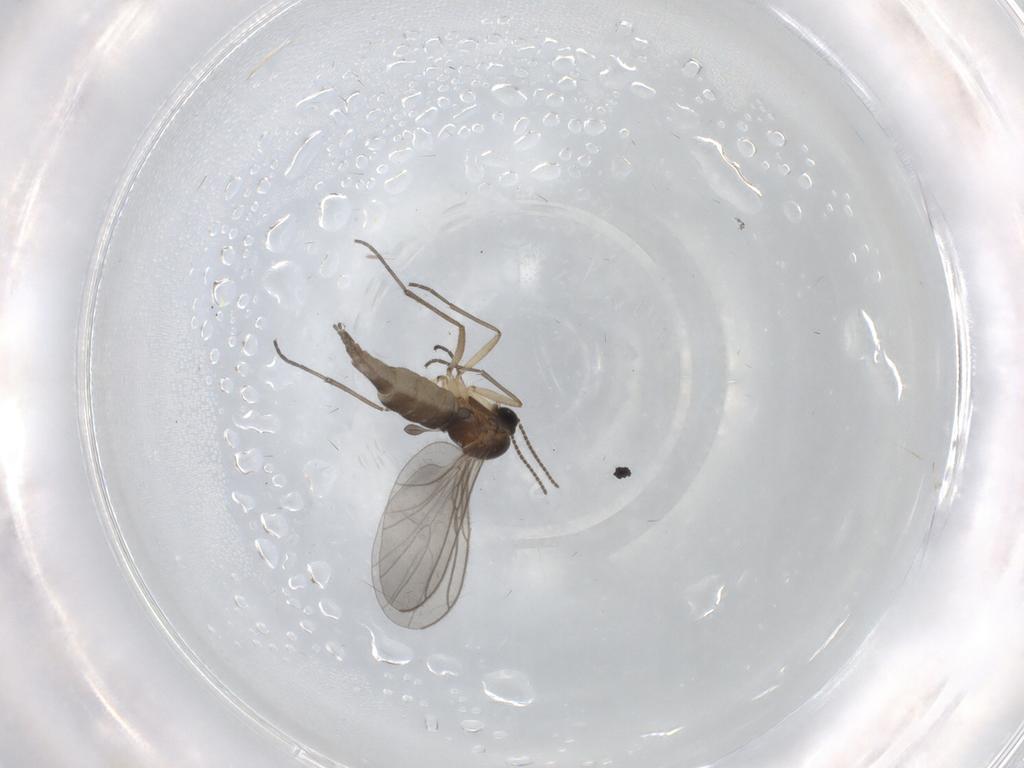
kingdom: Animalia
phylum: Arthropoda
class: Insecta
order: Diptera
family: Sciaridae
